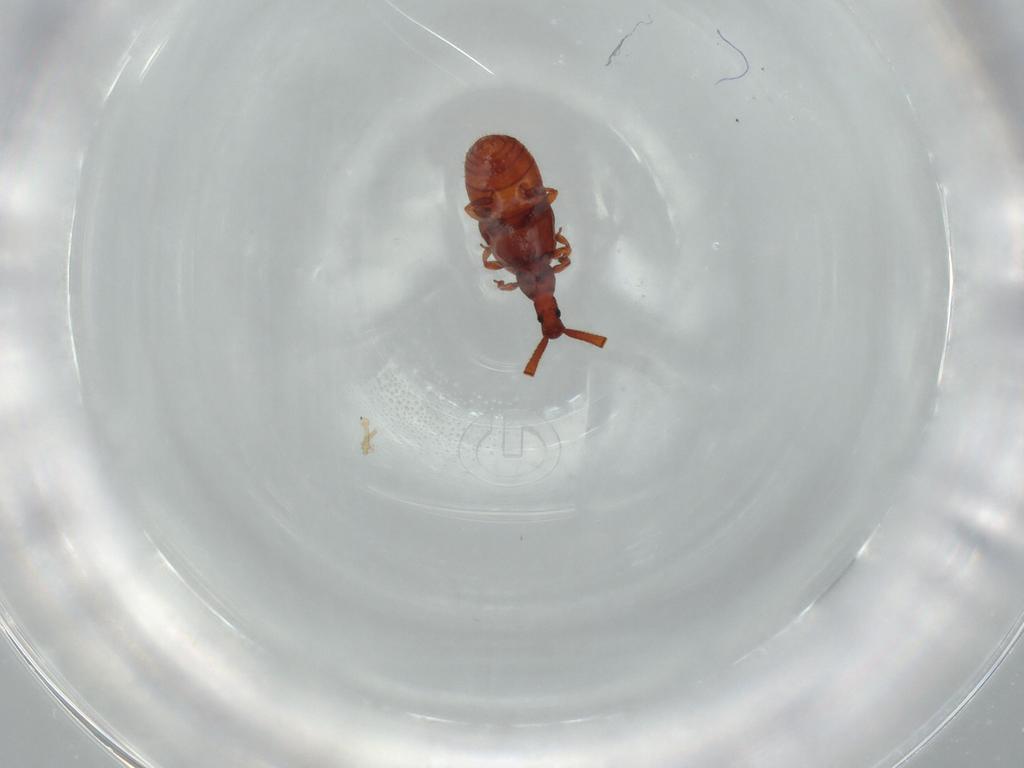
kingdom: Animalia
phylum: Arthropoda
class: Insecta
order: Coleoptera
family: Staphylinidae
